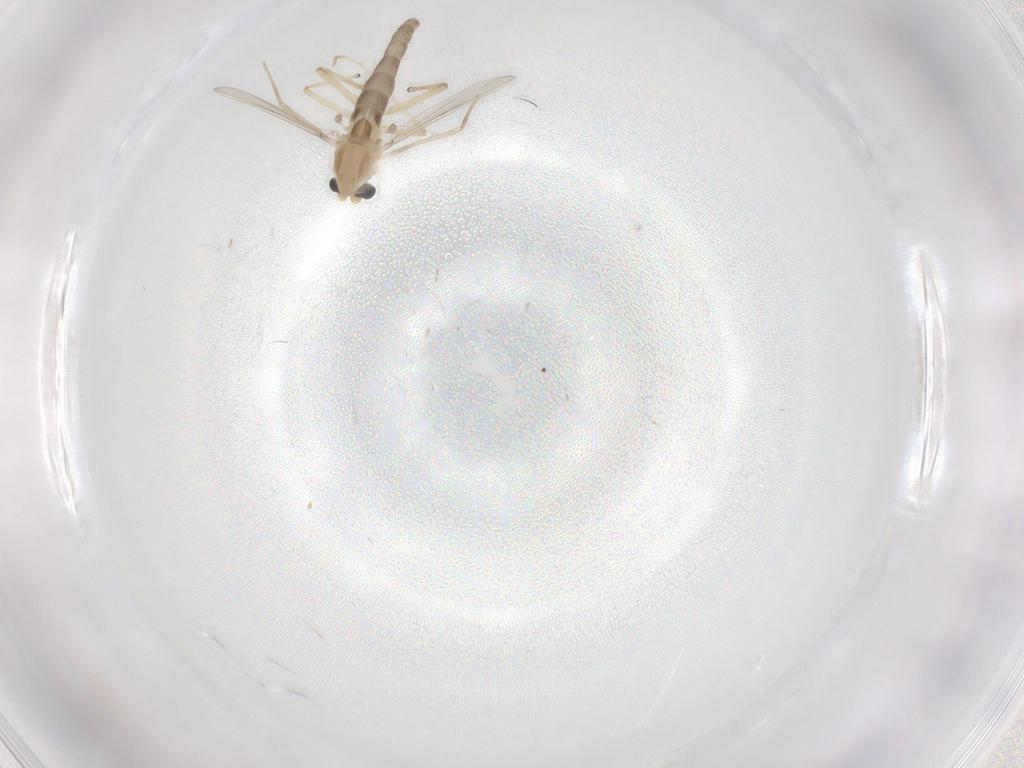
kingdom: Animalia
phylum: Arthropoda
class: Insecta
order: Diptera
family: Chironomidae
